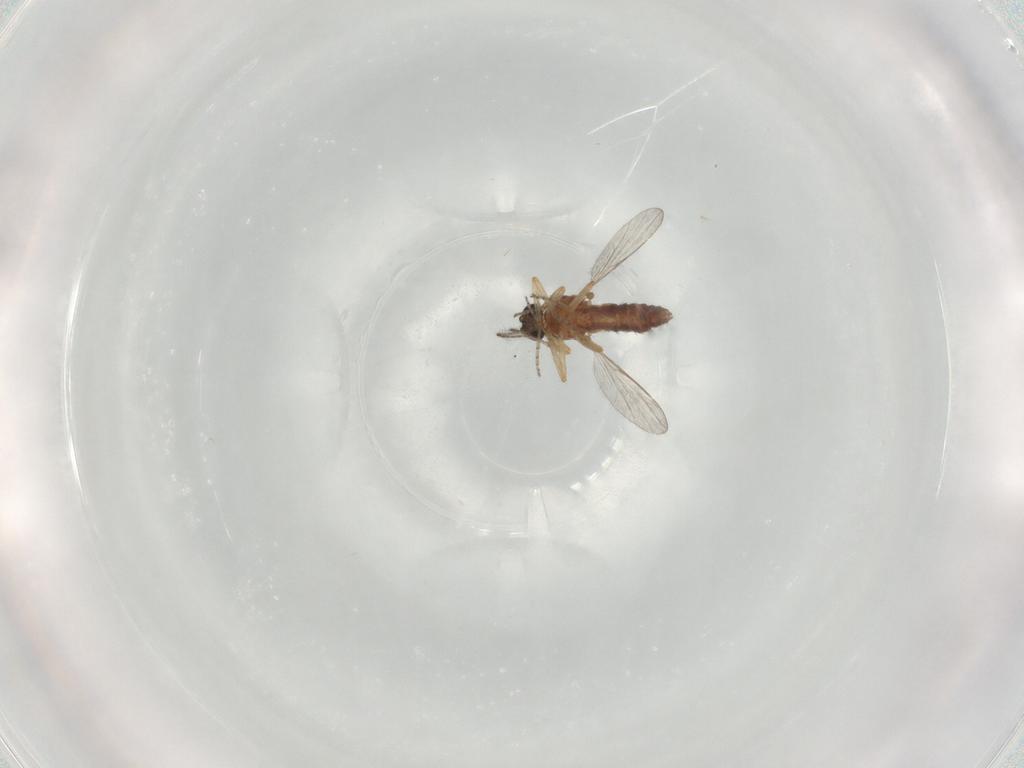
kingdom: Animalia
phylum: Arthropoda
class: Insecta
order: Diptera
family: Ceratopogonidae
